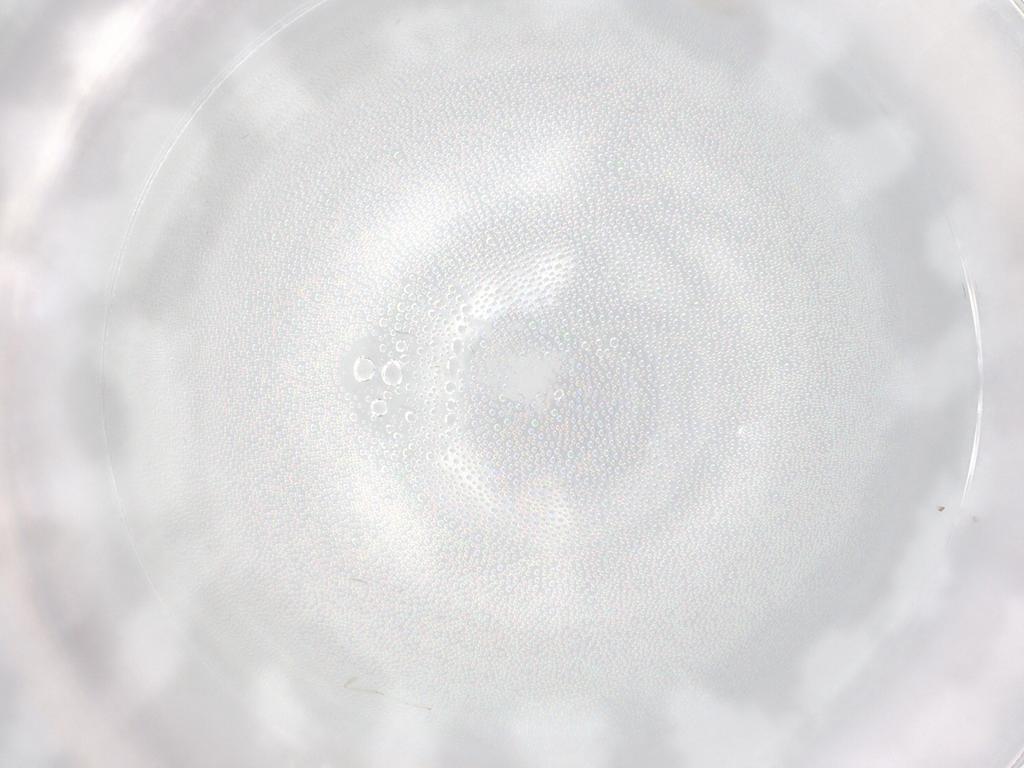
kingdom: Animalia
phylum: Arthropoda
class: Insecta
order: Diptera
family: Cecidomyiidae
